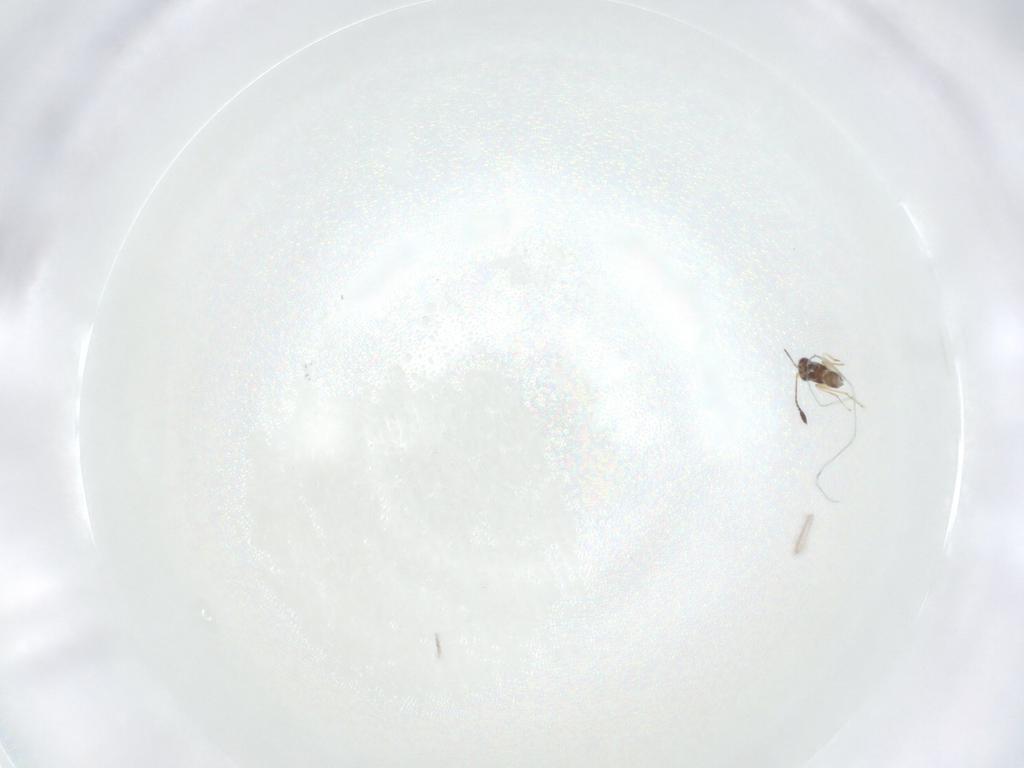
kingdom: Animalia
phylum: Arthropoda
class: Insecta
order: Hymenoptera
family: Mymaridae
